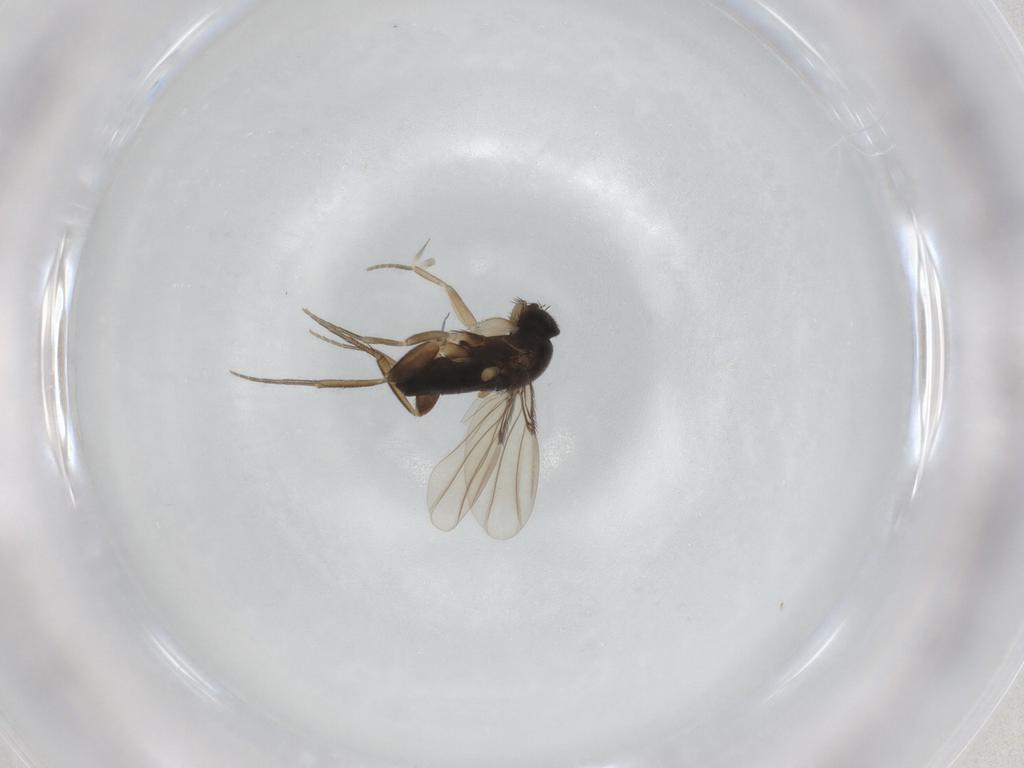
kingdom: Animalia
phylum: Arthropoda
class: Insecta
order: Diptera
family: Phoridae
